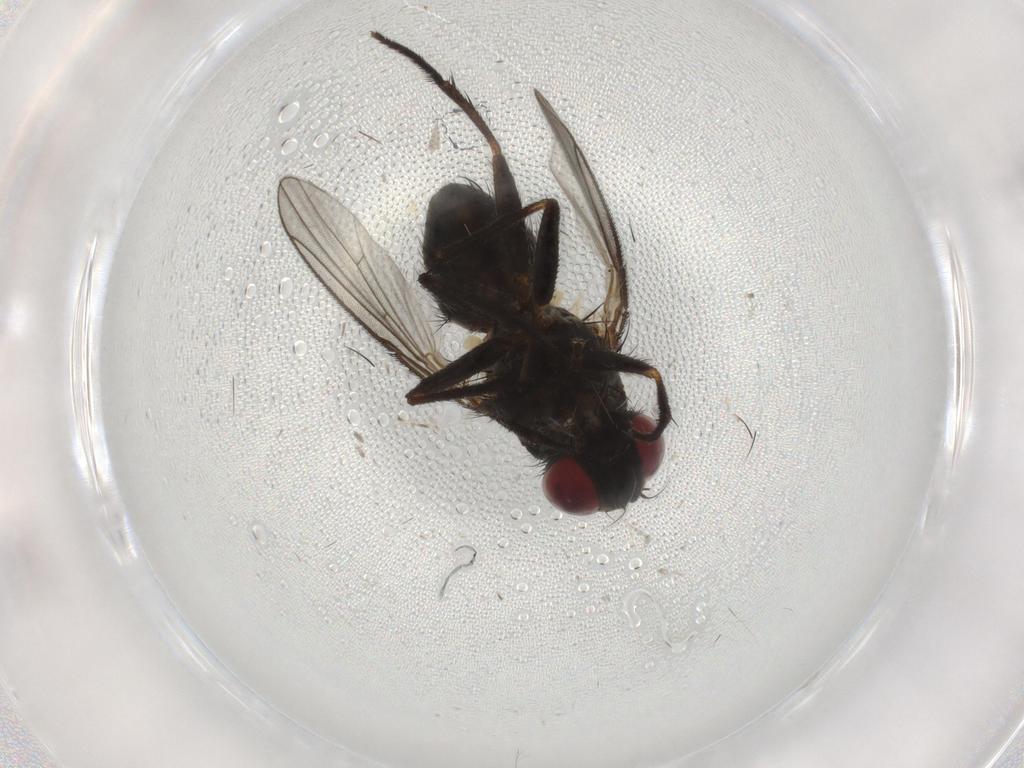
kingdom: Animalia
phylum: Arthropoda
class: Insecta
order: Diptera
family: Muscidae
